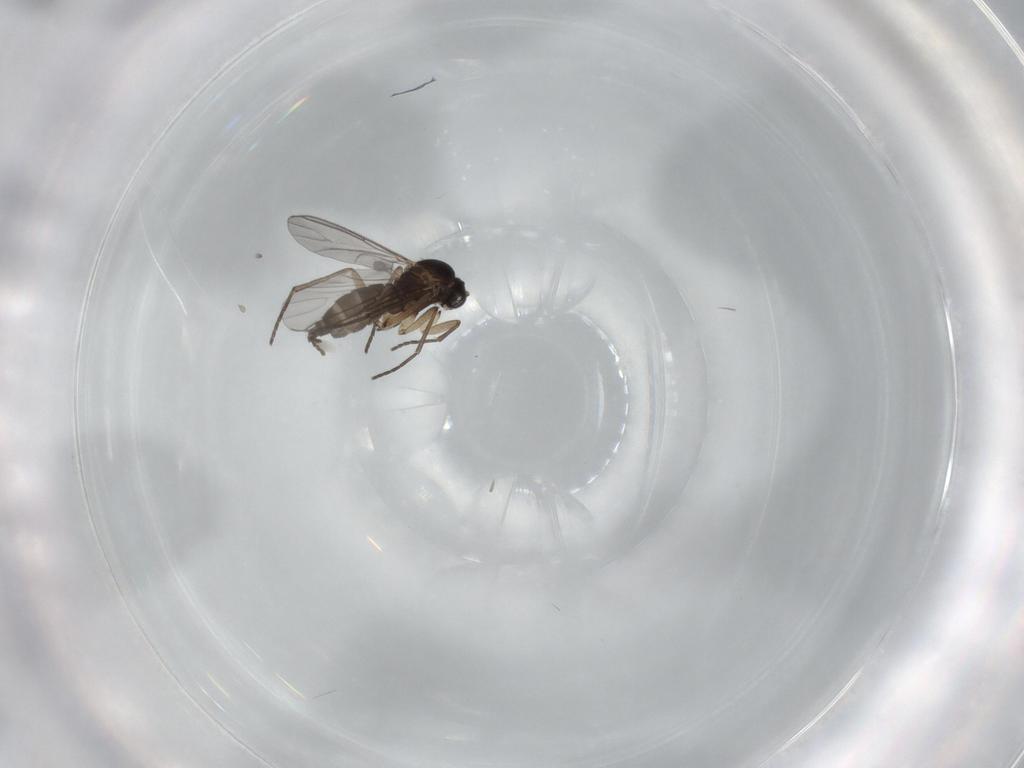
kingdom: Animalia
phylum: Arthropoda
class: Insecta
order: Diptera
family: Sciaridae
